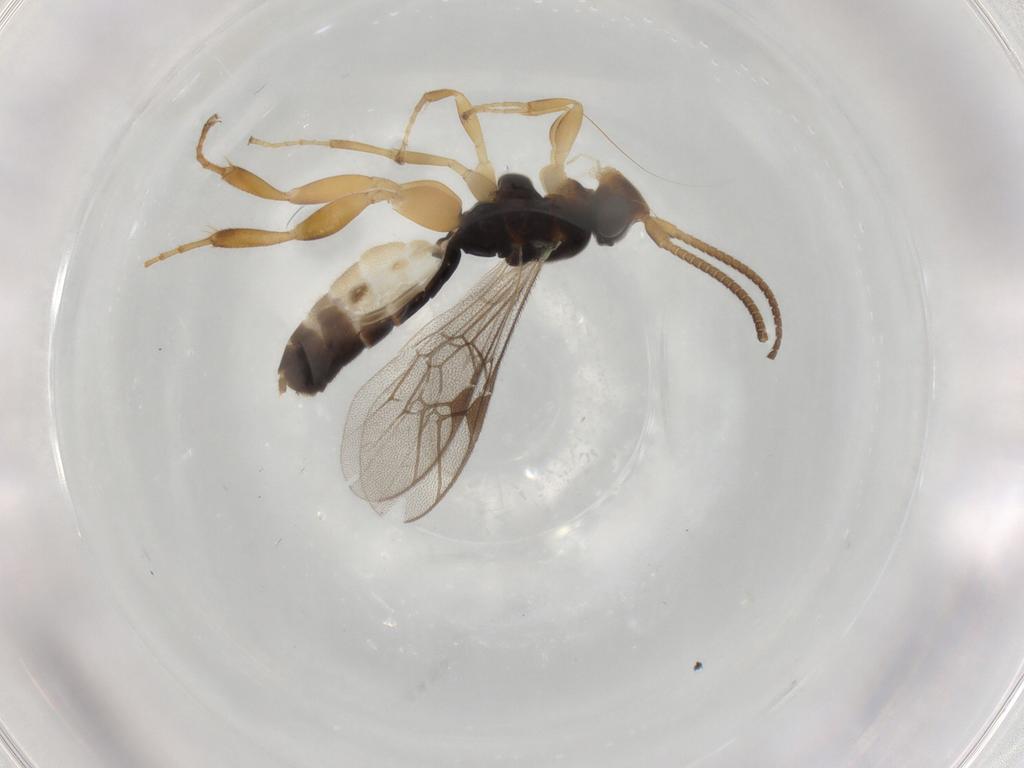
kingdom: Animalia
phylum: Arthropoda
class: Insecta
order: Hymenoptera
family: Ichneumonidae
